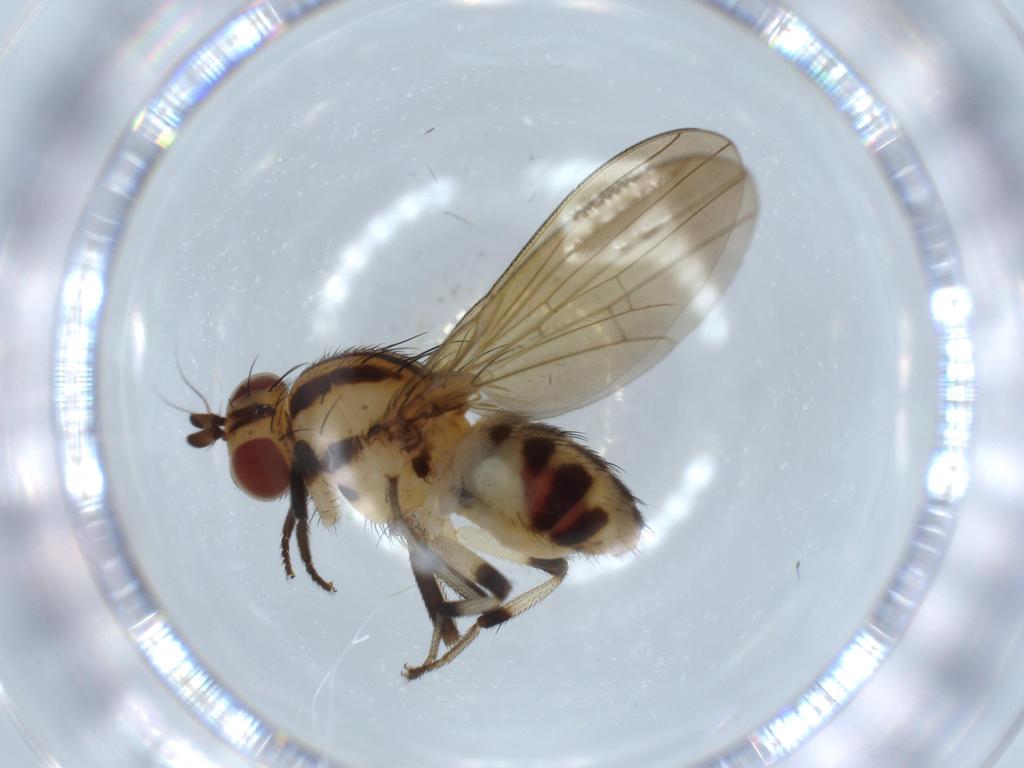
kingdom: Animalia
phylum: Arthropoda
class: Insecta
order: Diptera
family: Lauxaniidae
